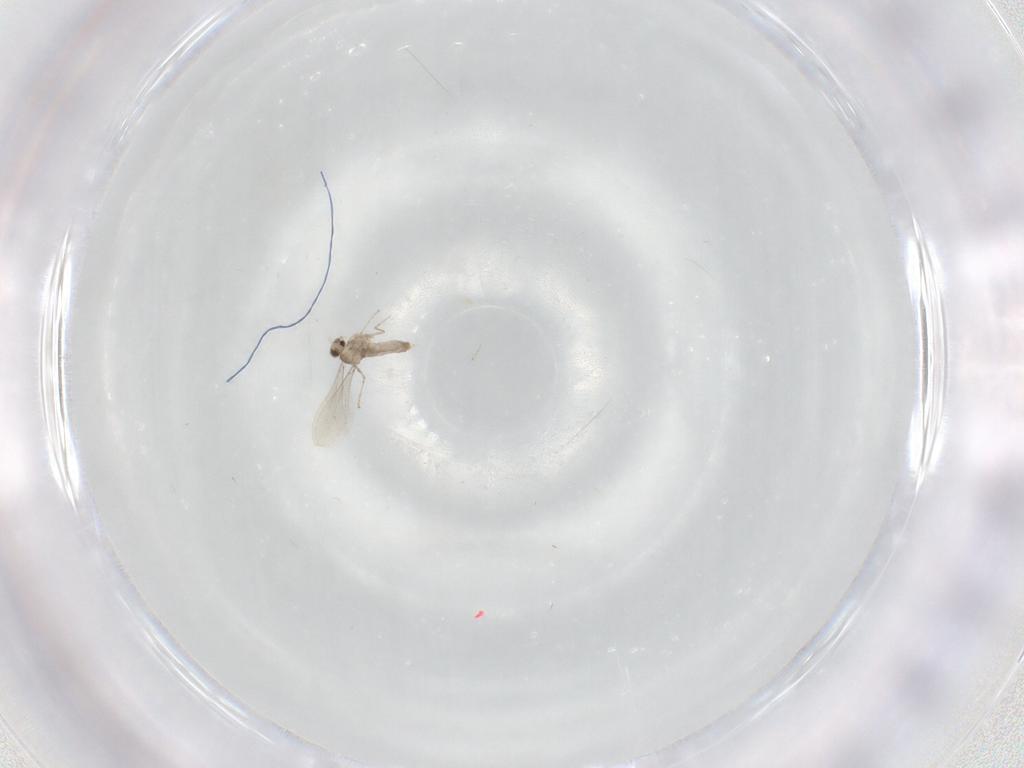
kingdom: Animalia
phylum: Arthropoda
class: Insecta
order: Diptera
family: Cecidomyiidae
